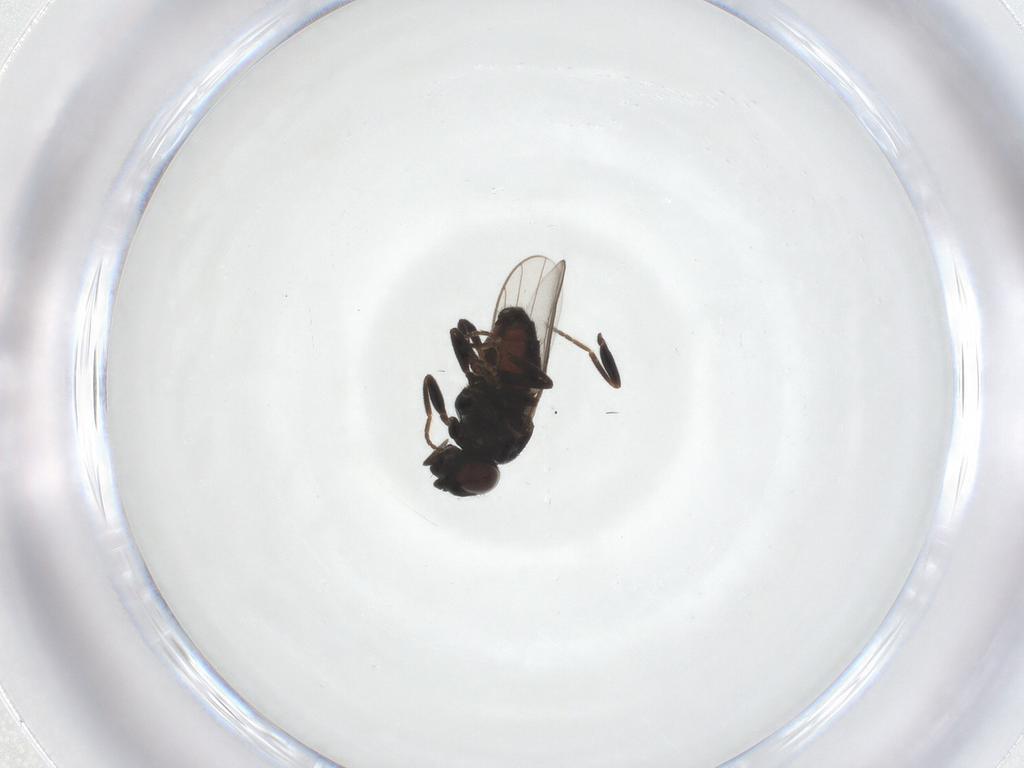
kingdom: Animalia
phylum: Arthropoda
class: Insecta
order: Diptera
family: Chloropidae
